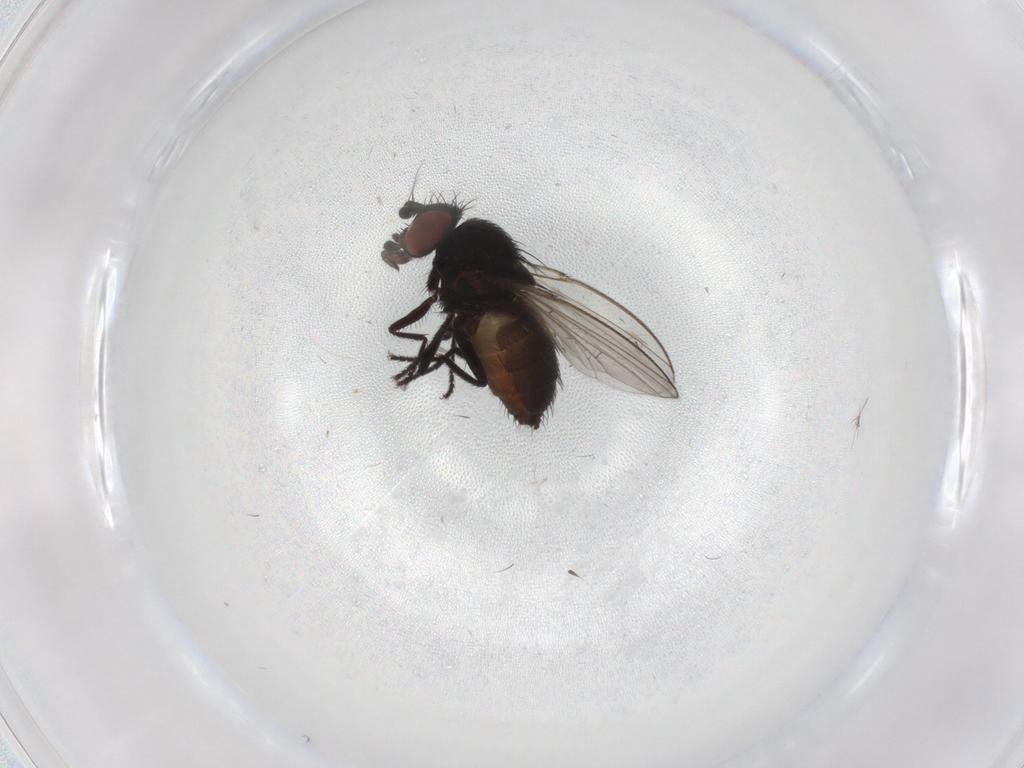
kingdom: Animalia
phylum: Arthropoda
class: Insecta
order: Diptera
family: Milichiidae
